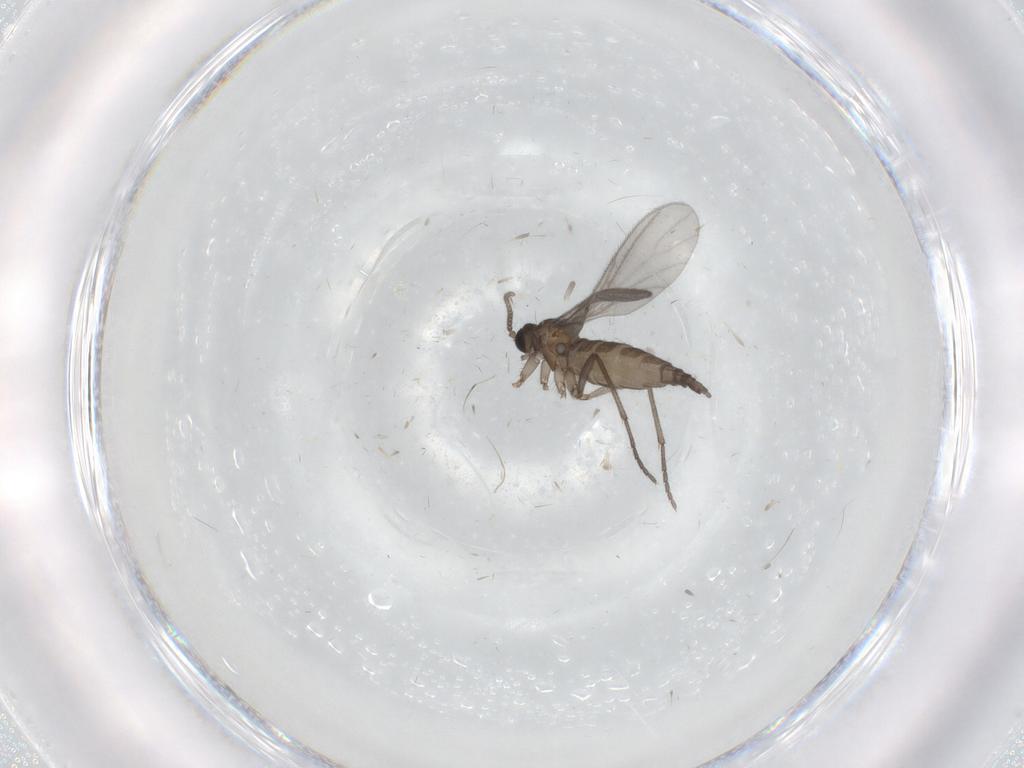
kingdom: Animalia
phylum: Arthropoda
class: Insecta
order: Diptera
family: Sciaridae
